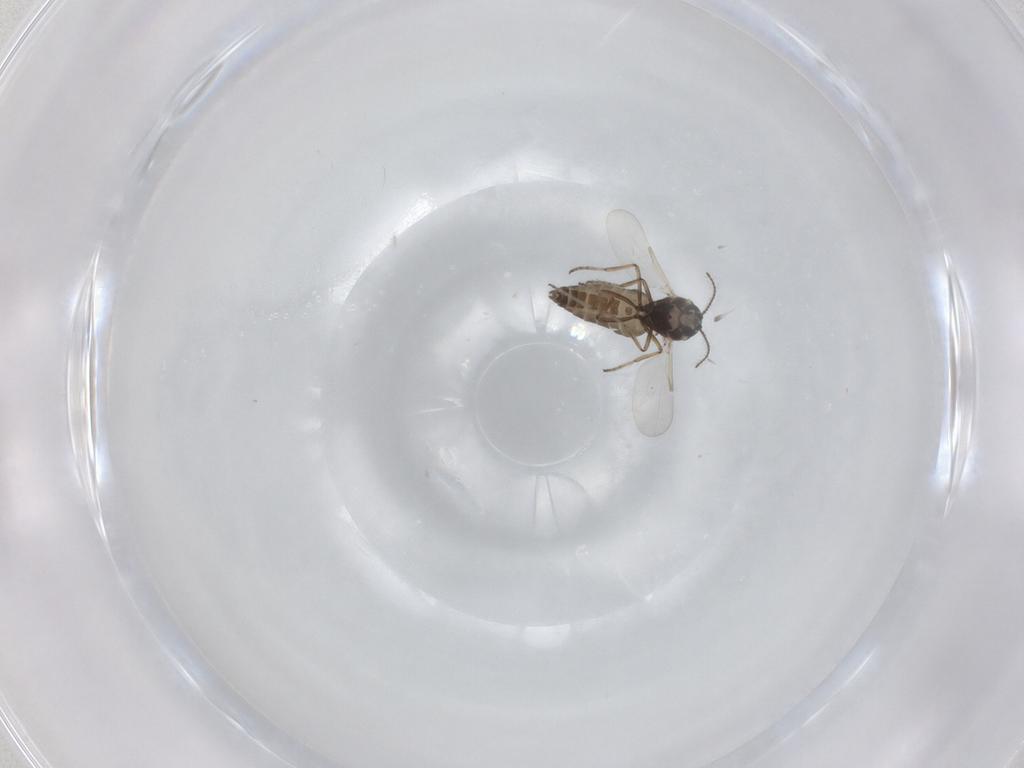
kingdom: Animalia
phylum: Arthropoda
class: Insecta
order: Diptera
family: Ceratopogonidae
